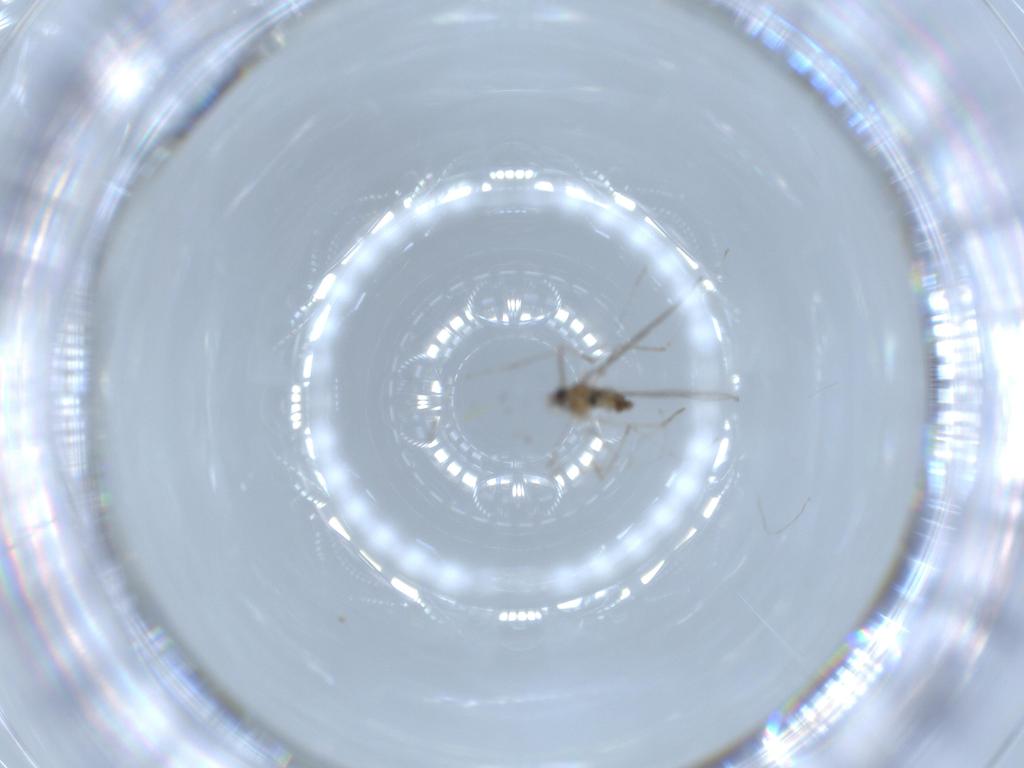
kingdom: Animalia
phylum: Arthropoda
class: Insecta
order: Diptera
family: Cecidomyiidae
